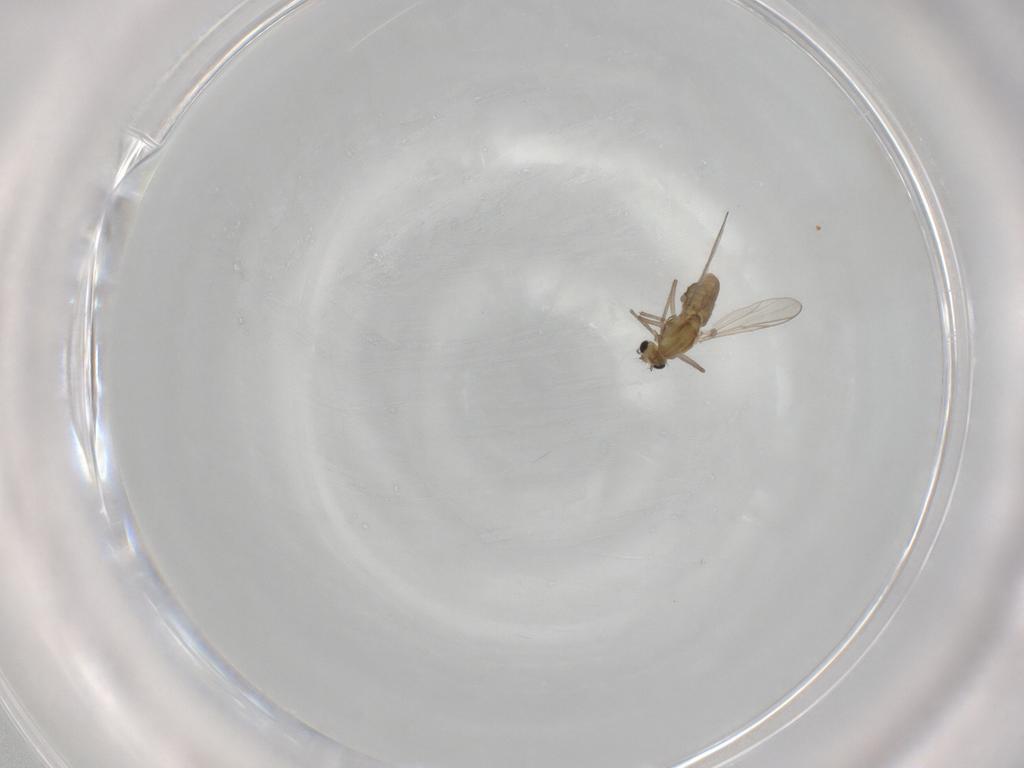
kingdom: Animalia
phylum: Arthropoda
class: Insecta
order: Diptera
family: Chironomidae
